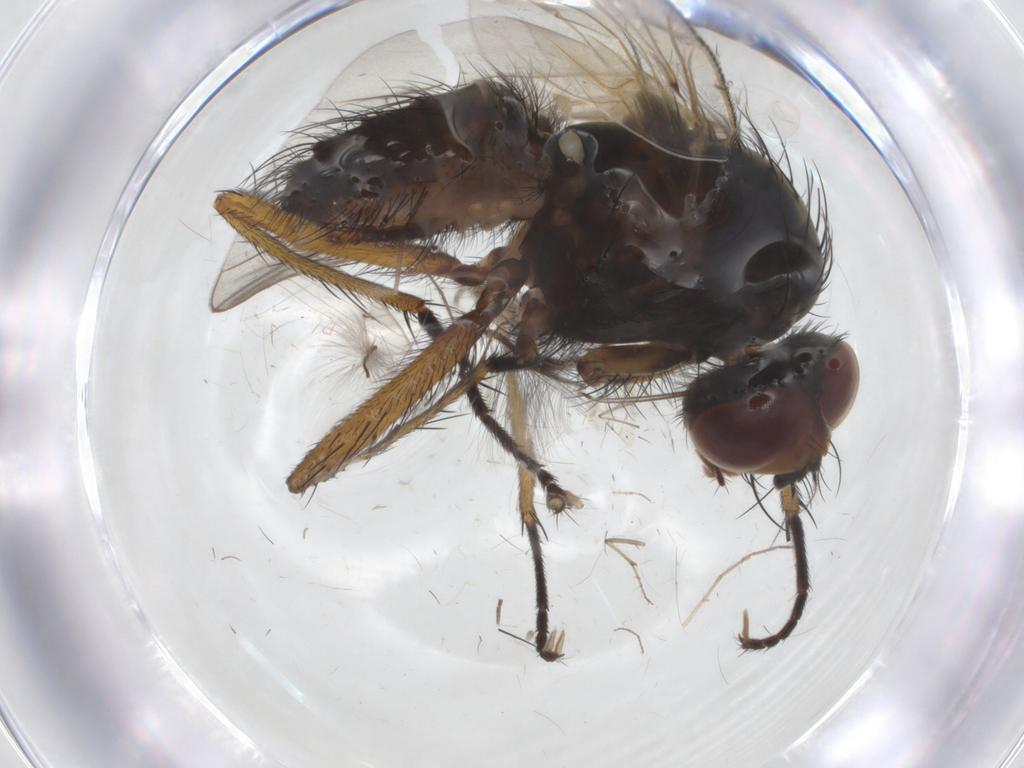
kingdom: Animalia
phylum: Arthropoda
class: Insecta
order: Diptera
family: Anthomyiidae
